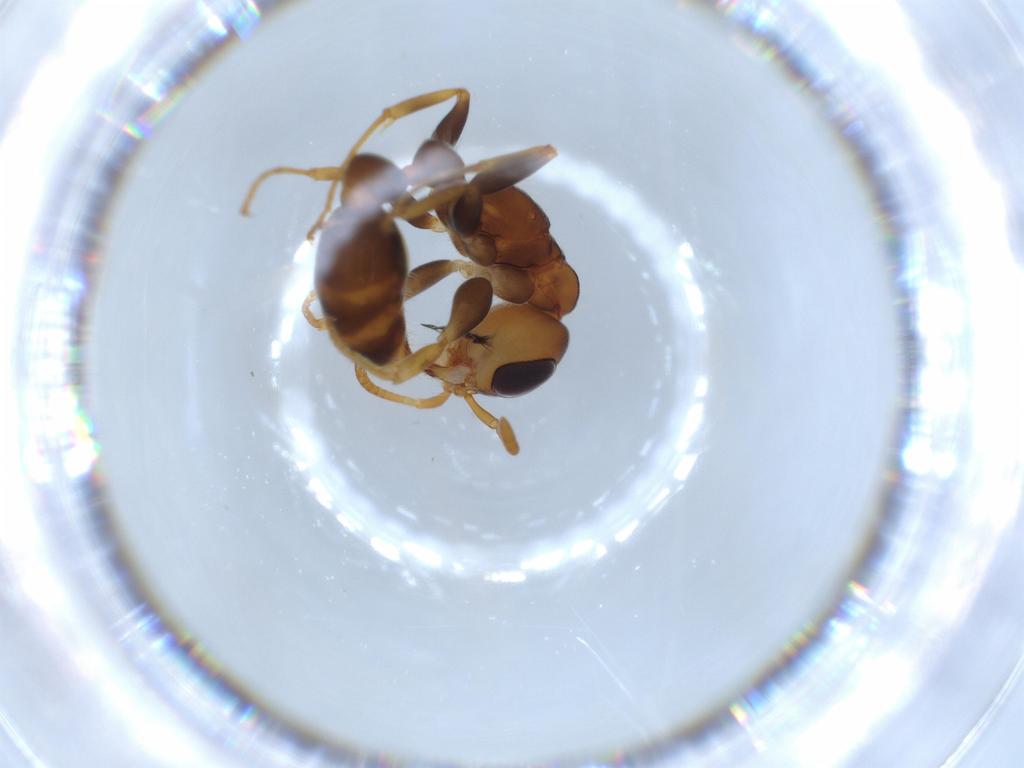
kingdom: Animalia
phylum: Arthropoda
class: Insecta
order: Hymenoptera
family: Formicidae
